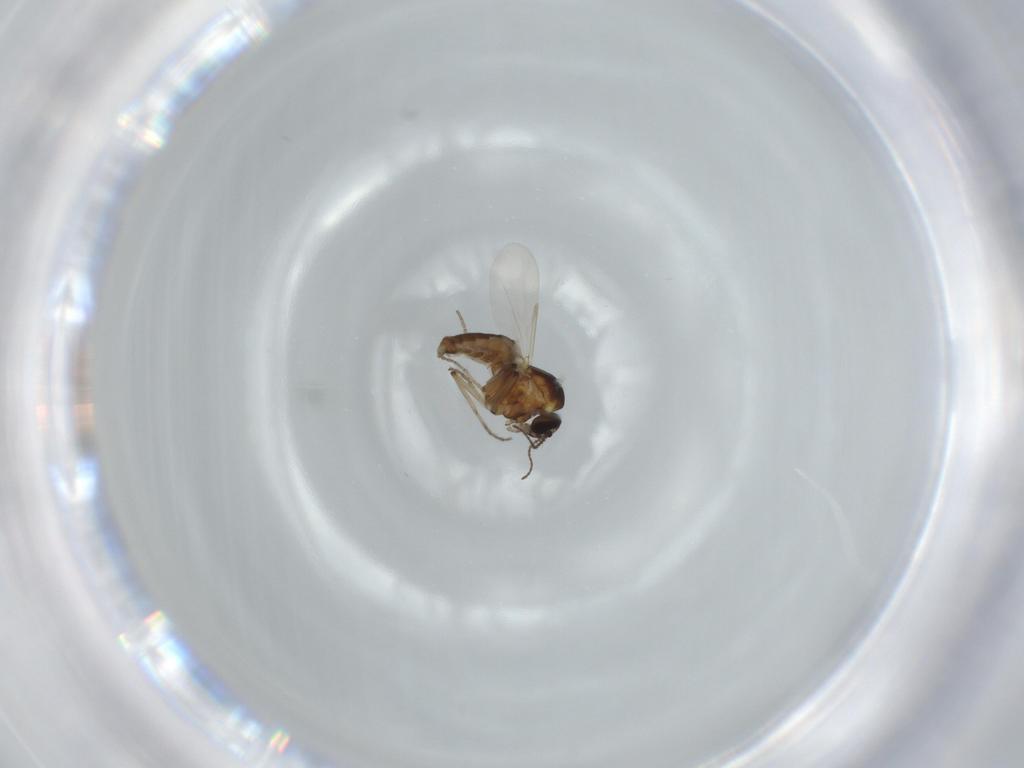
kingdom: Animalia
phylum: Arthropoda
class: Insecta
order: Diptera
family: Ceratopogonidae
